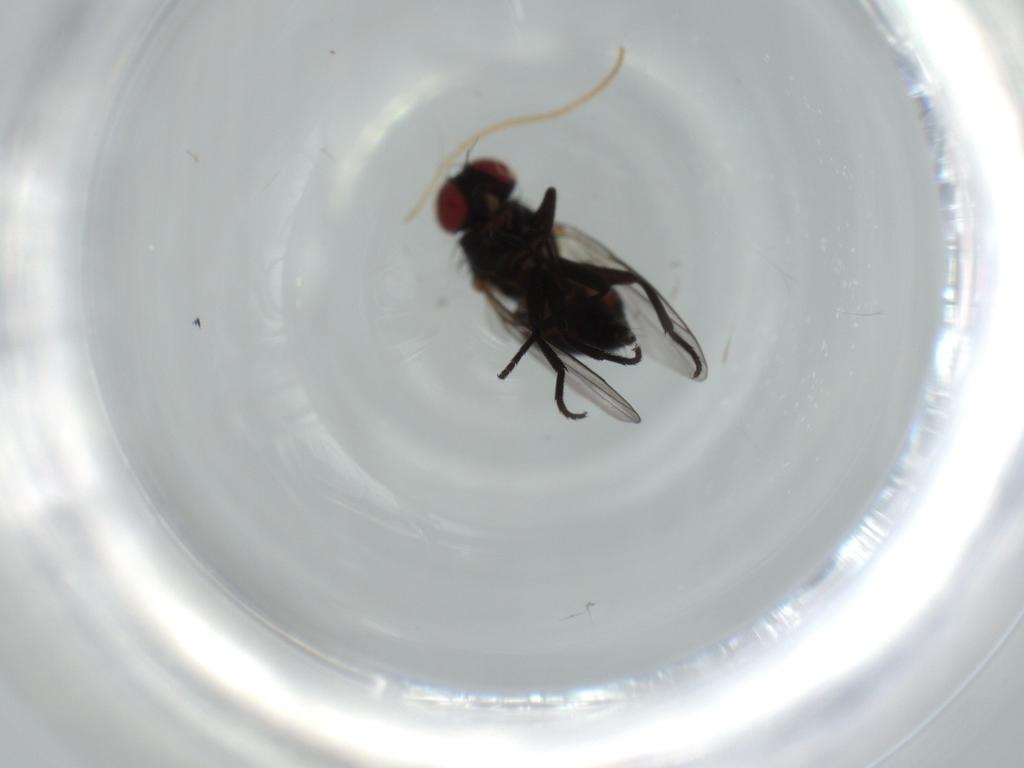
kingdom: Animalia
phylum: Arthropoda
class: Insecta
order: Diptera
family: Agromyzidae
